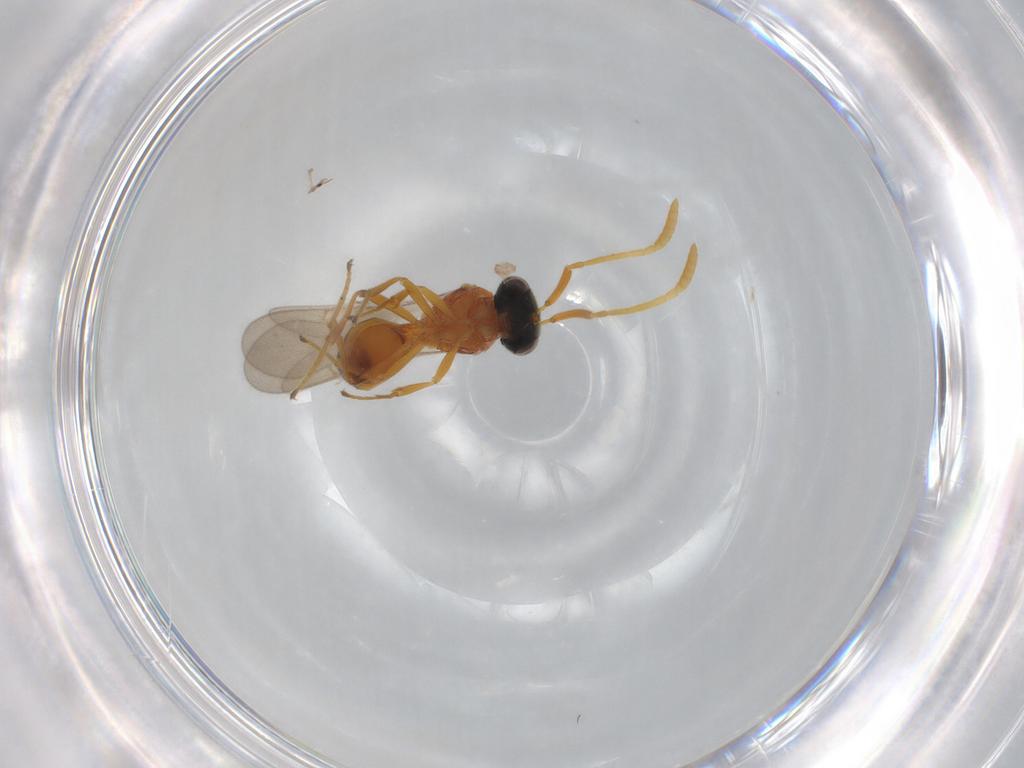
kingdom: Animalia
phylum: Arthropoda
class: Insecta
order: Hymenoptera
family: Scelionidae
